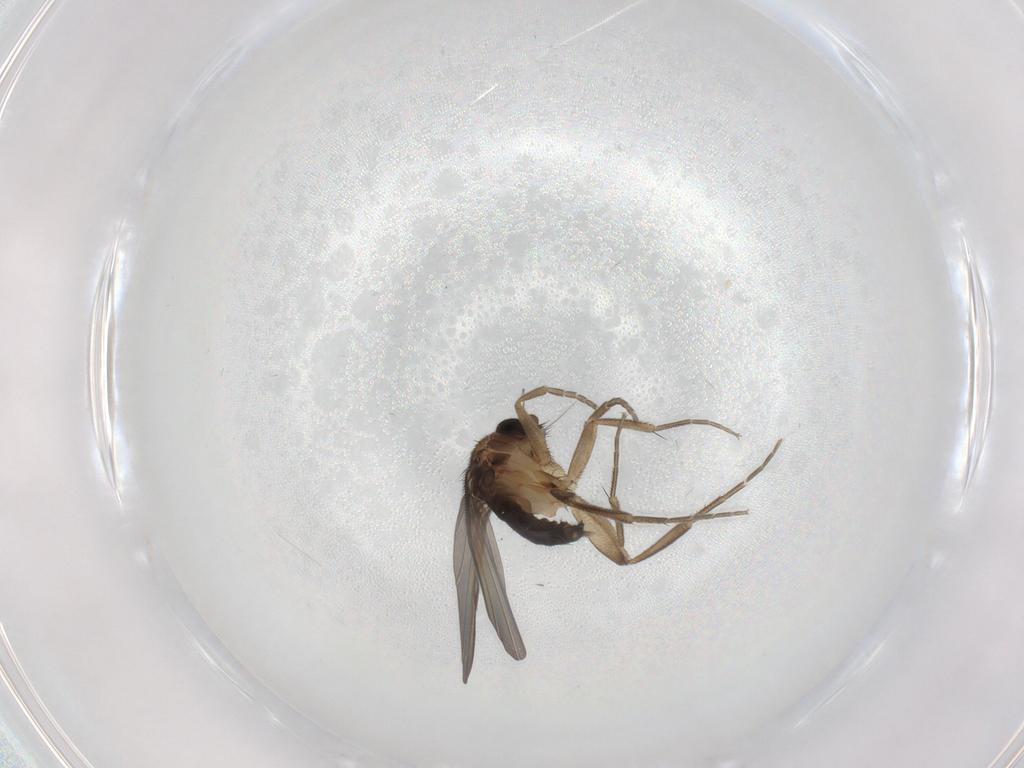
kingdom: Animalia
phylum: Arthropoda
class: Insecta
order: Diptera
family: Phoridae
